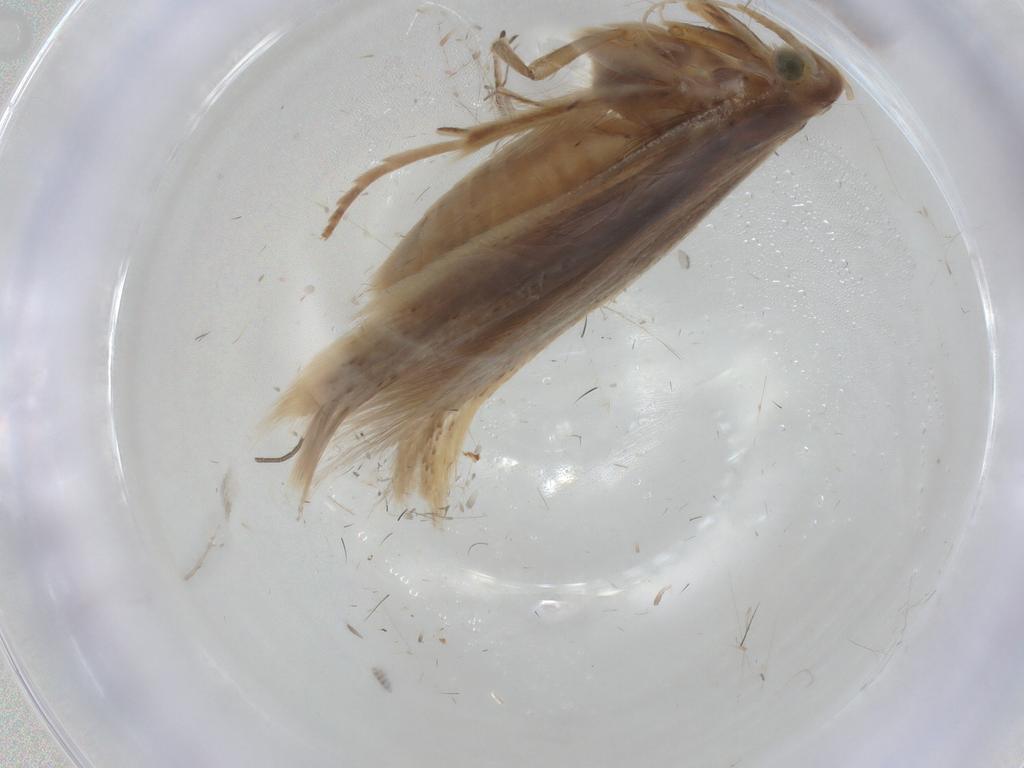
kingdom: Animalia
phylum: Arthropoda
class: Insecta
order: Lepidoptera
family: Coleophoridae
